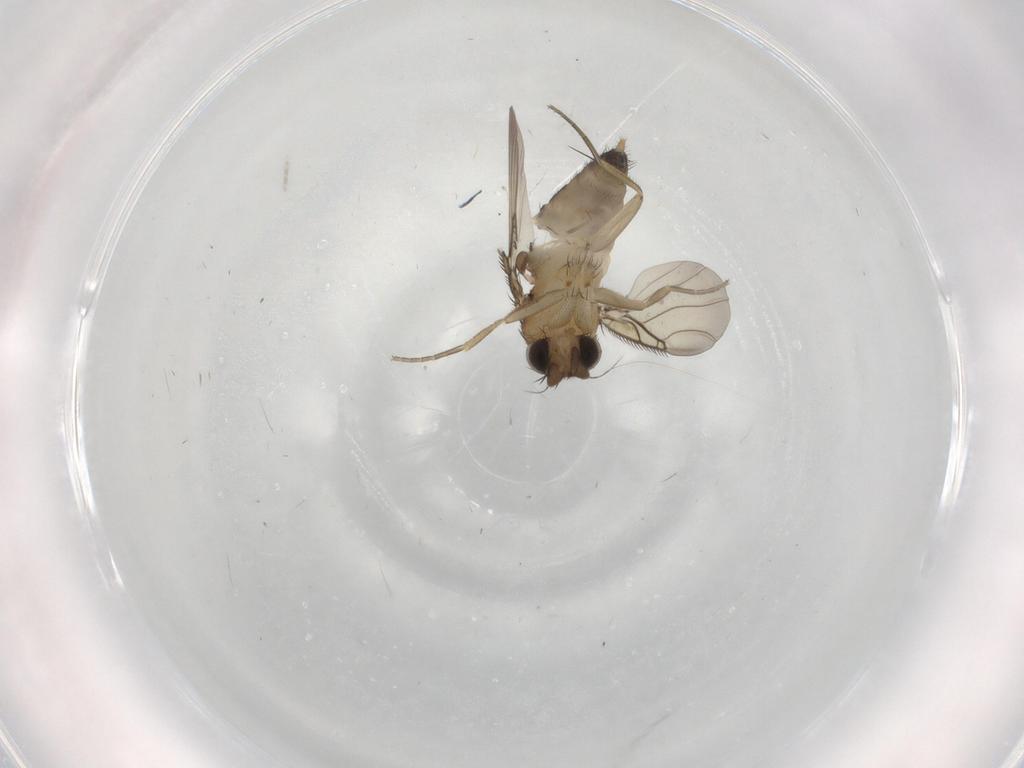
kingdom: Animalia
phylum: Arthropoda
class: Insecta
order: Diptera
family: Phoridae
